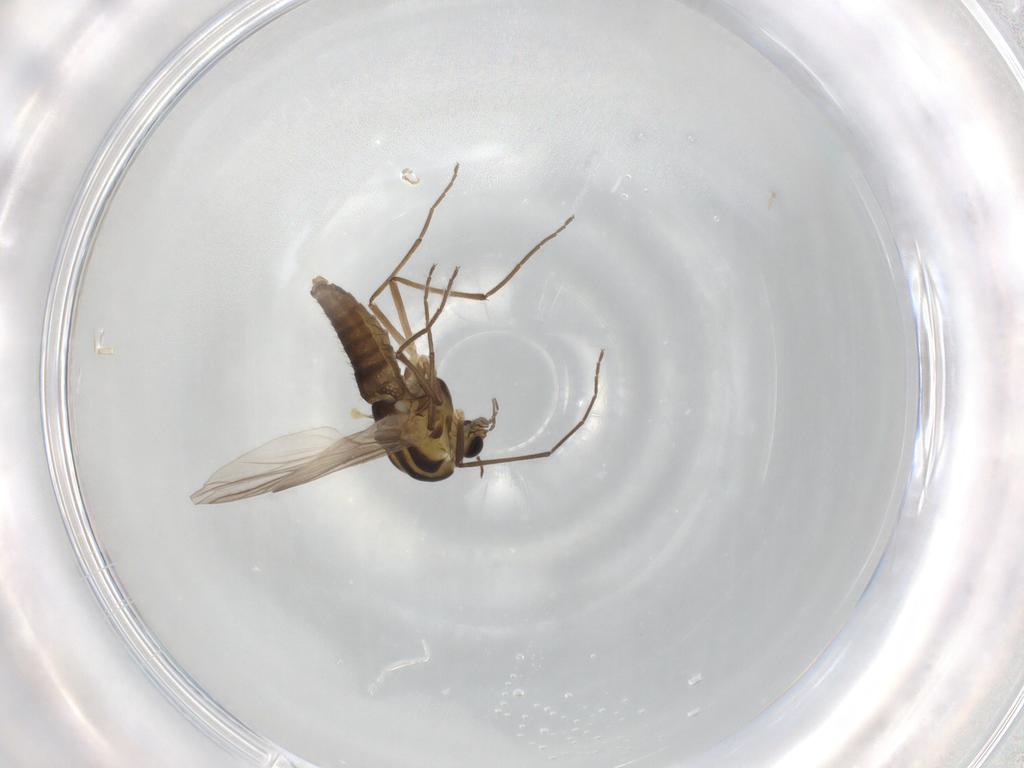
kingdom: Animalia
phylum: Arthropoda
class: Insecta
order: Diptera
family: Chironomidae
